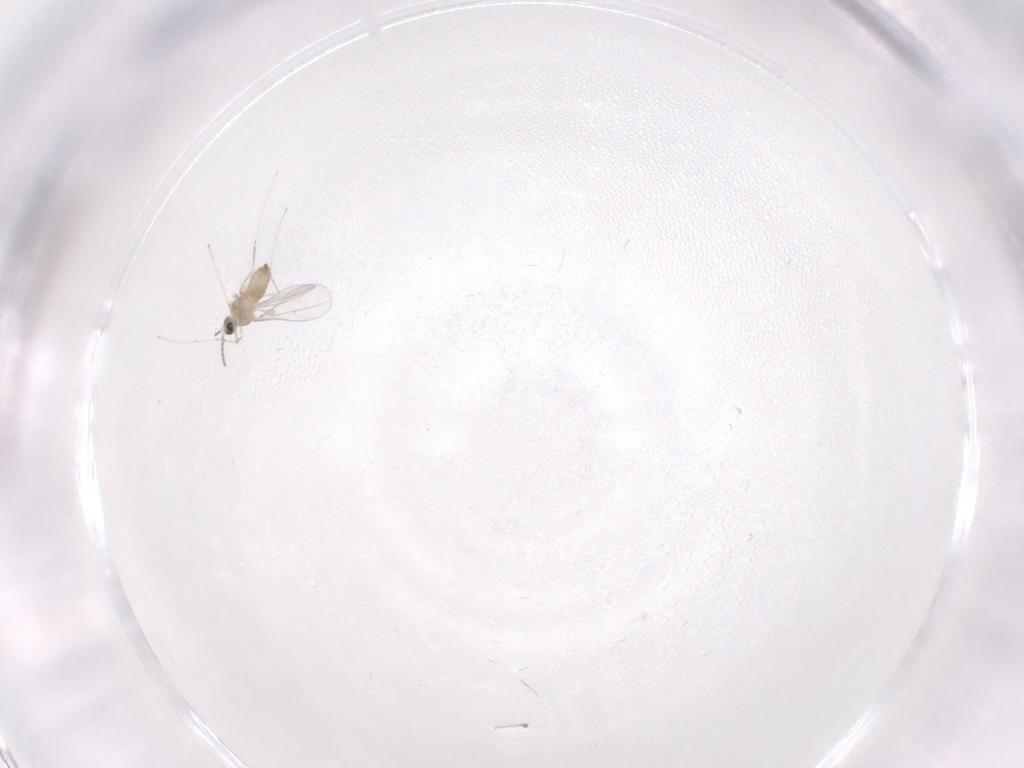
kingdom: Animalia
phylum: Arthropoda
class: Insecta
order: Diptera
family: Cecidomyiidae
